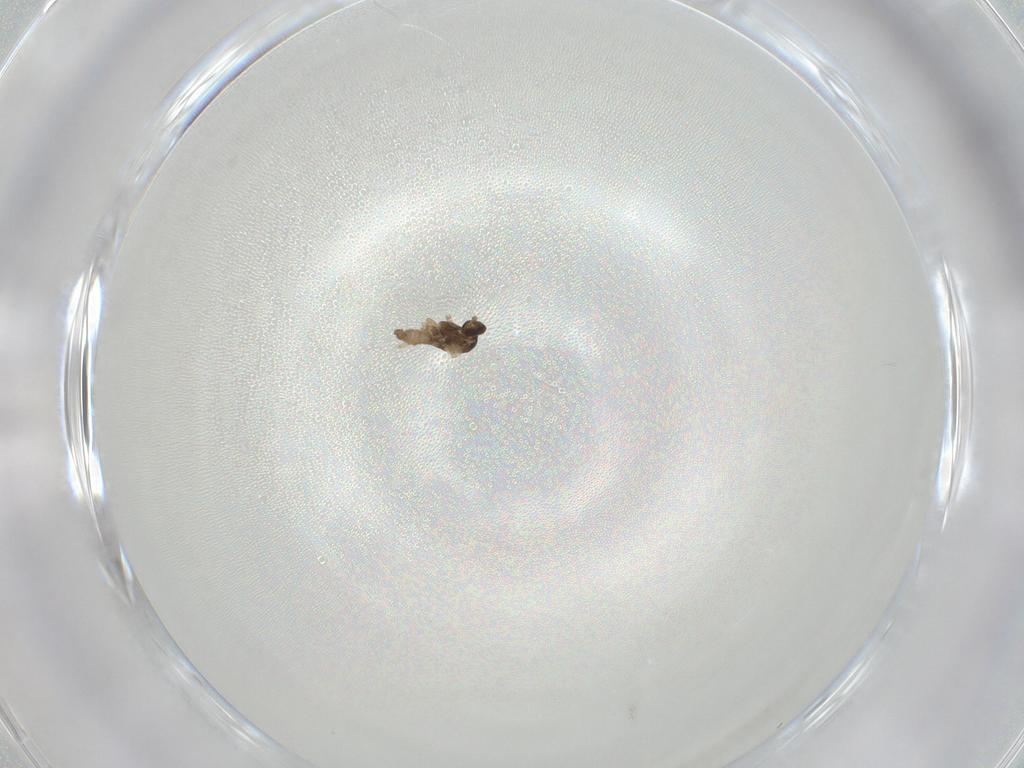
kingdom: Animalia
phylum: Arthropoda
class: Insecta
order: Diptera
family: Cecidomyiidae
